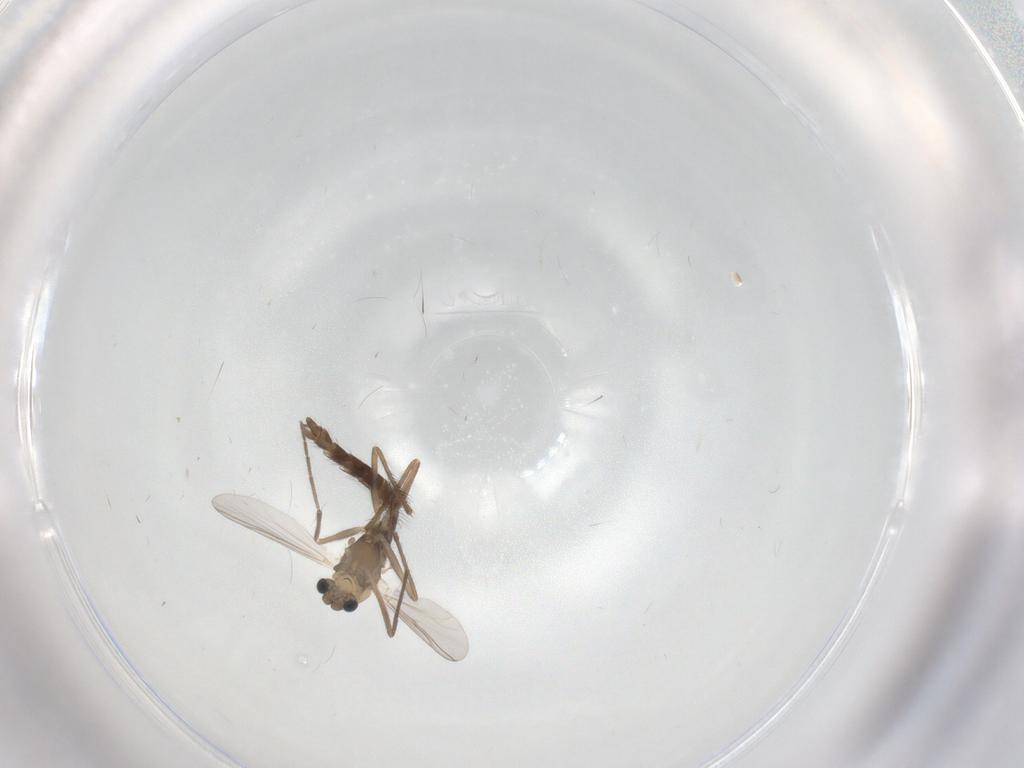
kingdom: Animalia
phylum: Arthropoda
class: Insecta
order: Diptera
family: Chironomidae
